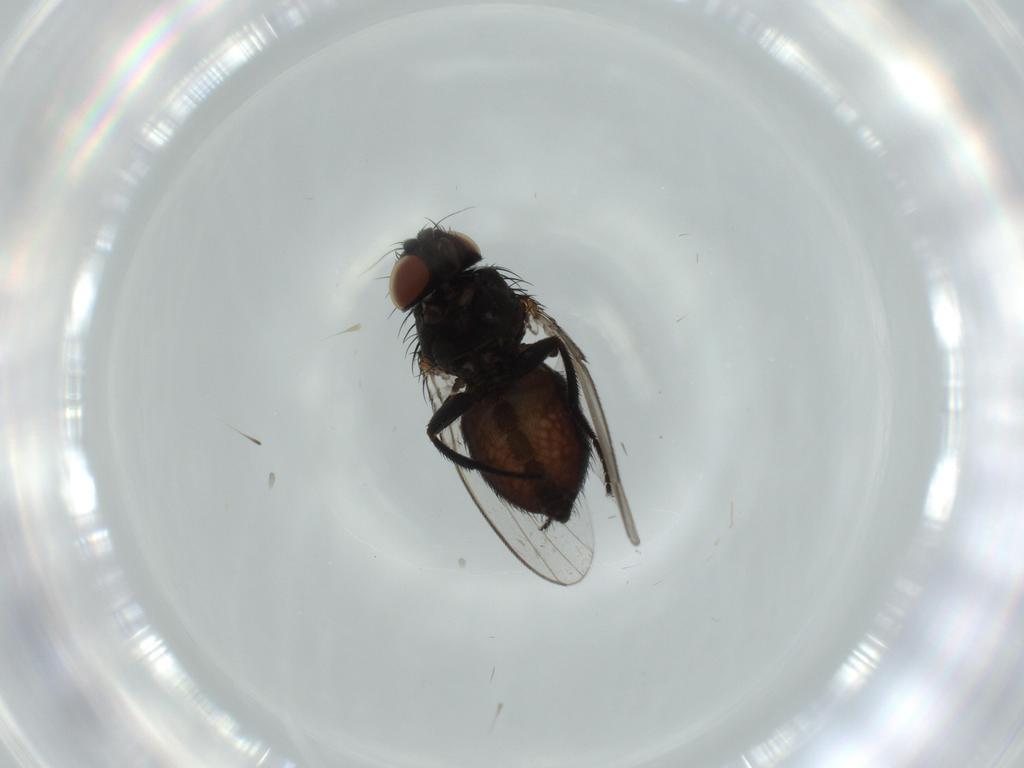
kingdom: Animalia
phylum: Arthropoda
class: Insecta
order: Diptera
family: Milichiidae
